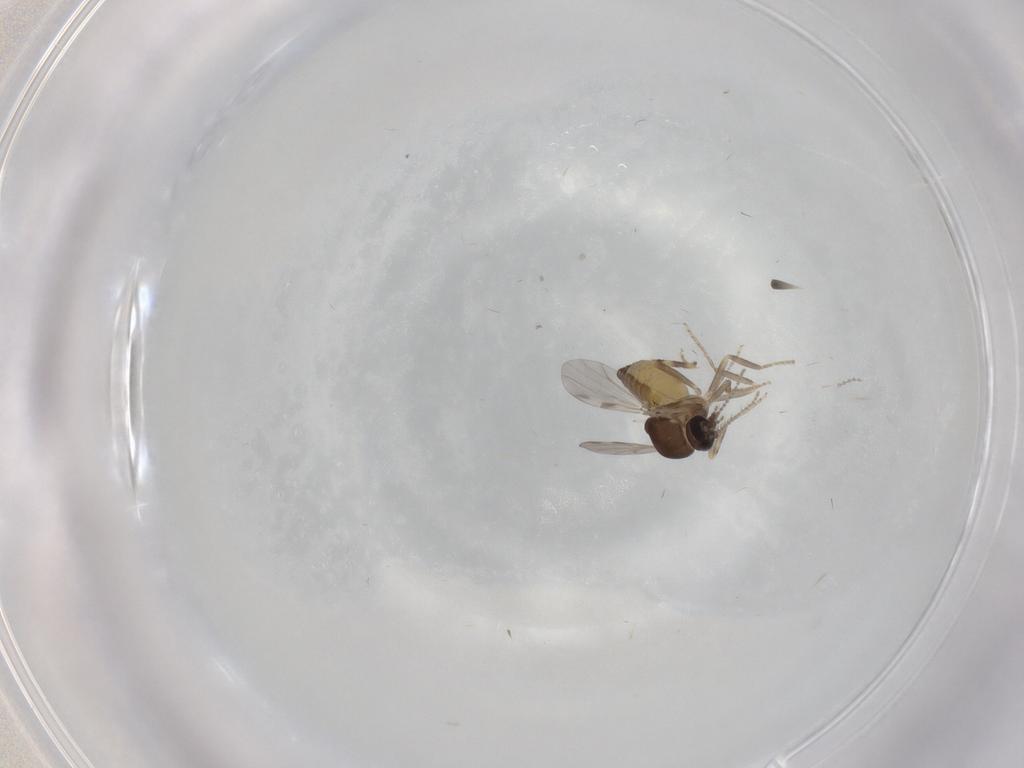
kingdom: Animalia
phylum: Arthropoda
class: Insecta
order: Diptera
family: Ceratopogonidae
